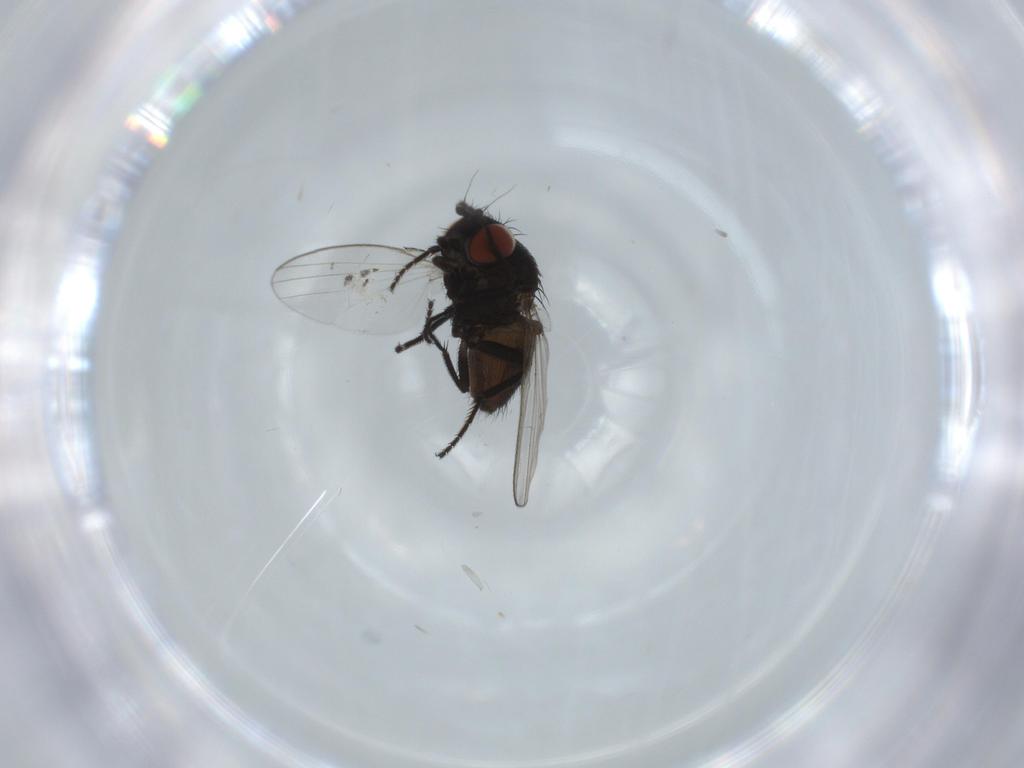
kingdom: Animalia
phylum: Arthropoda
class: Insecta
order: Diptera
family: Milichiidae
